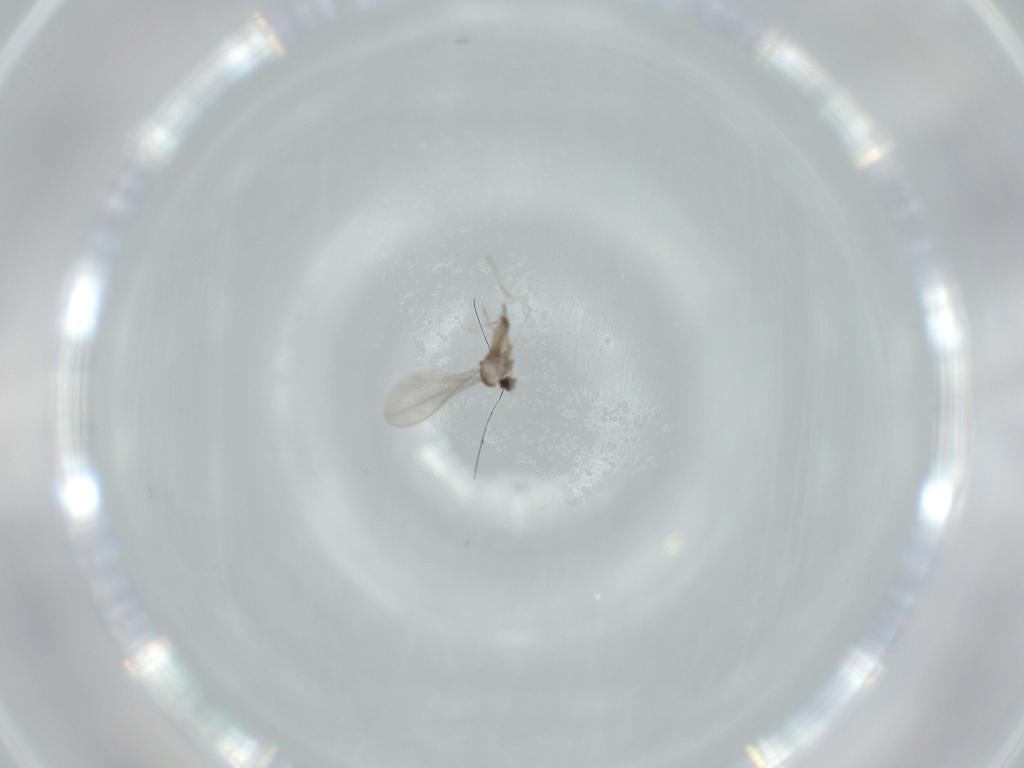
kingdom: Animalia
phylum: Arthropoda
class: Insecta
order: Diptera
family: Cecidomyiidae
